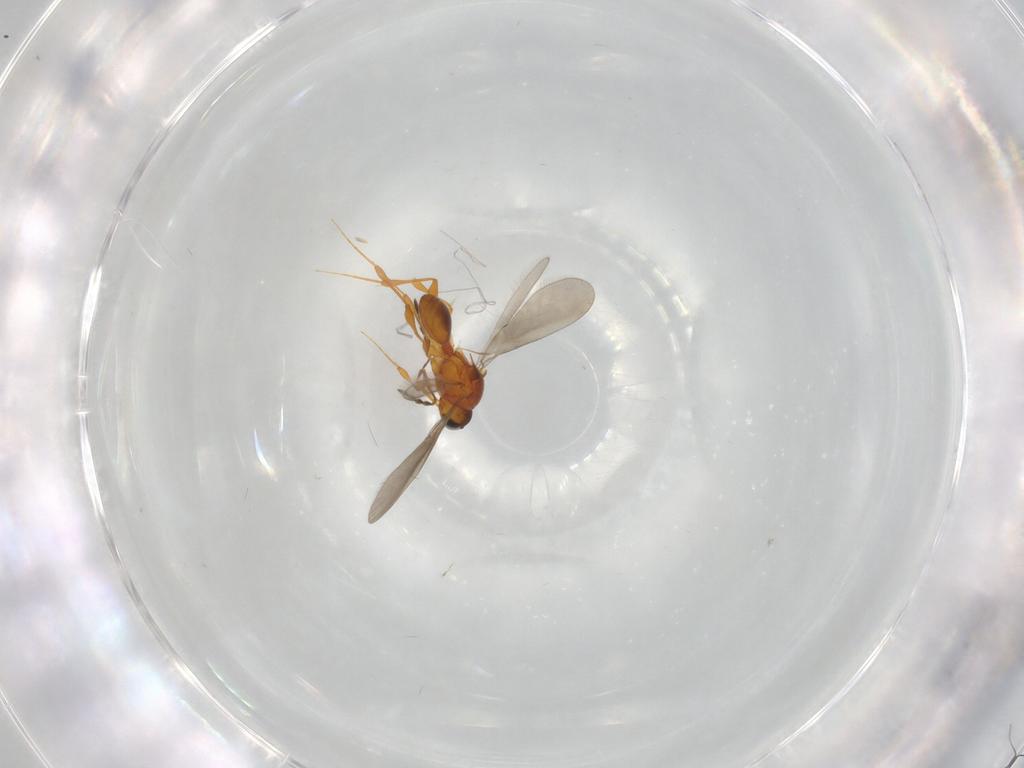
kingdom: Animalia
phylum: Arthropoda
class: Insecta
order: Hymenoptera
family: Platygastridae
